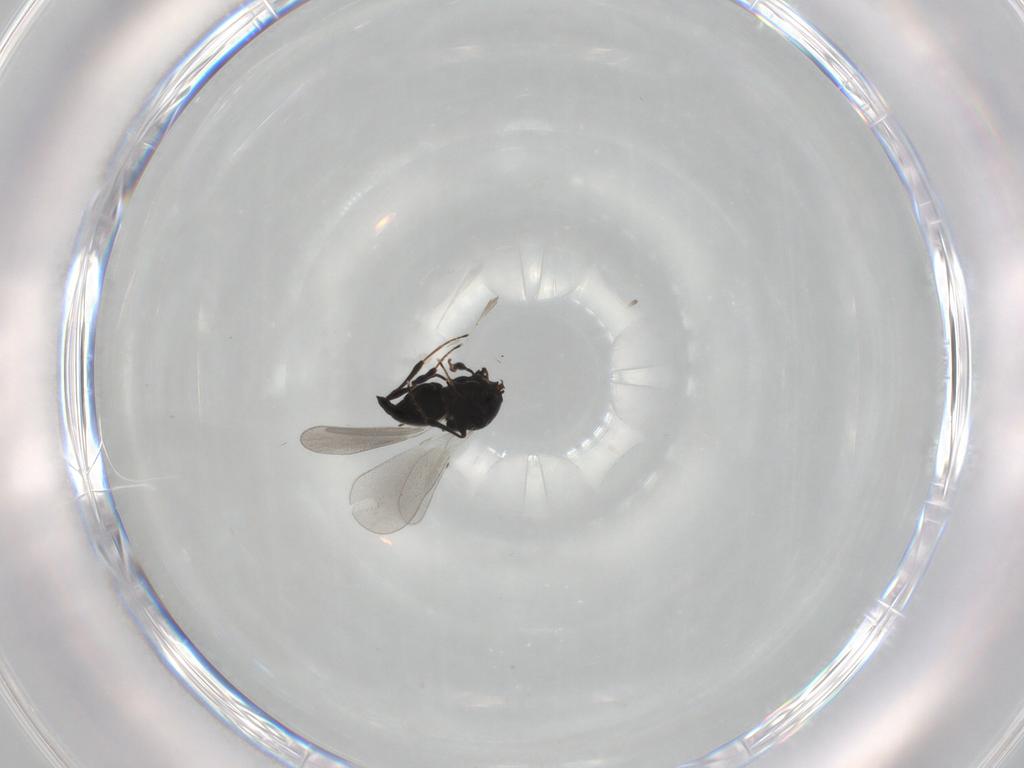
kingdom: Animalia
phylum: Arthropoda
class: Insecta
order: Hymenoptera
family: Platygastridae
